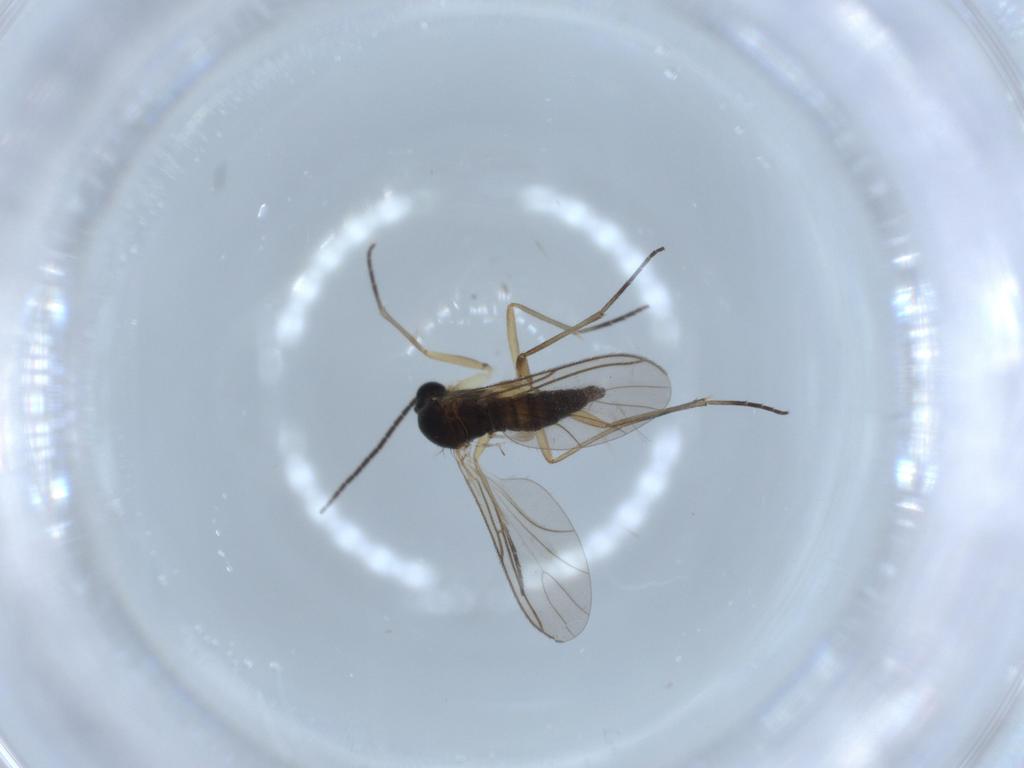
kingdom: Animalia
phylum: Arthropoda
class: Insecta
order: Diptera
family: Sciaridae
